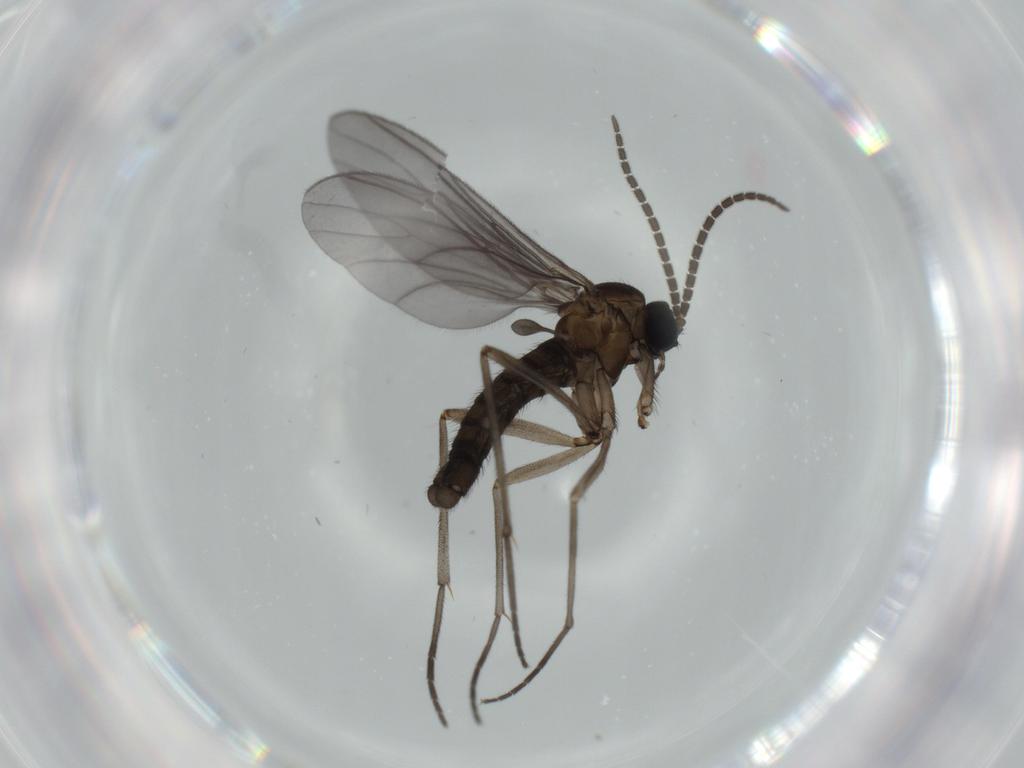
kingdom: Animalia
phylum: Arthropoda
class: Insecta
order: Diptera
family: Sciaridae
